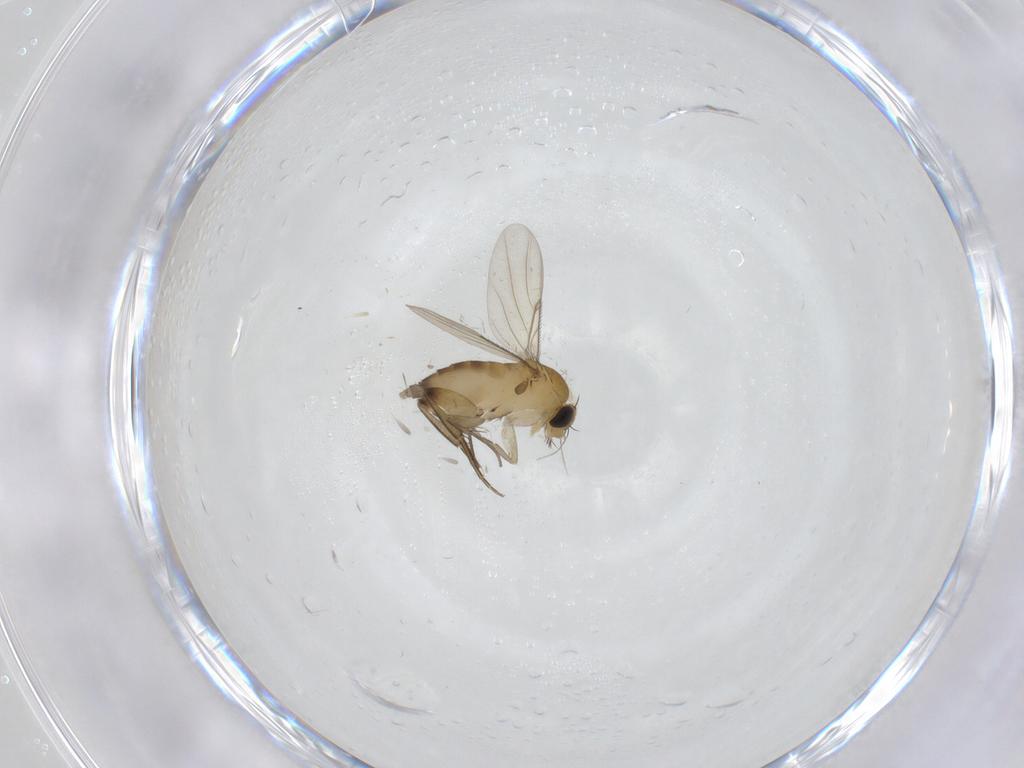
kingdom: Animalia
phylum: Arthropoda
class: Insecta
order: Diptera
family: Phoridae
